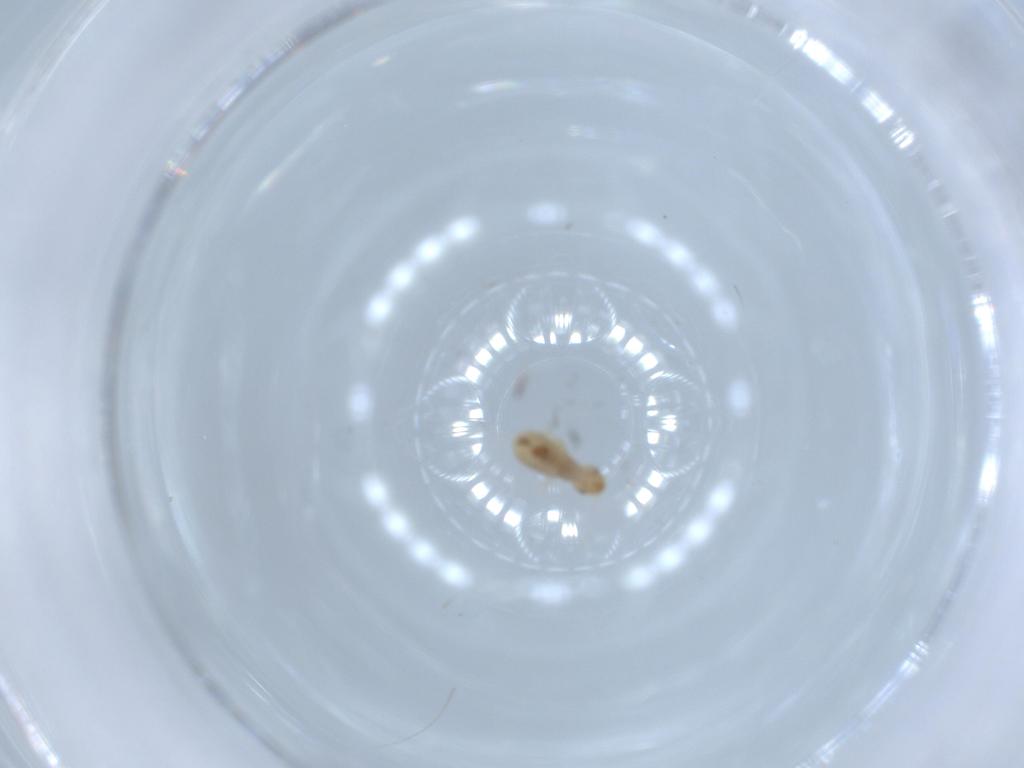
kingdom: Animalia
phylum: Arthropoda
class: Insecta
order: Psocodea
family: Liposcelididae
